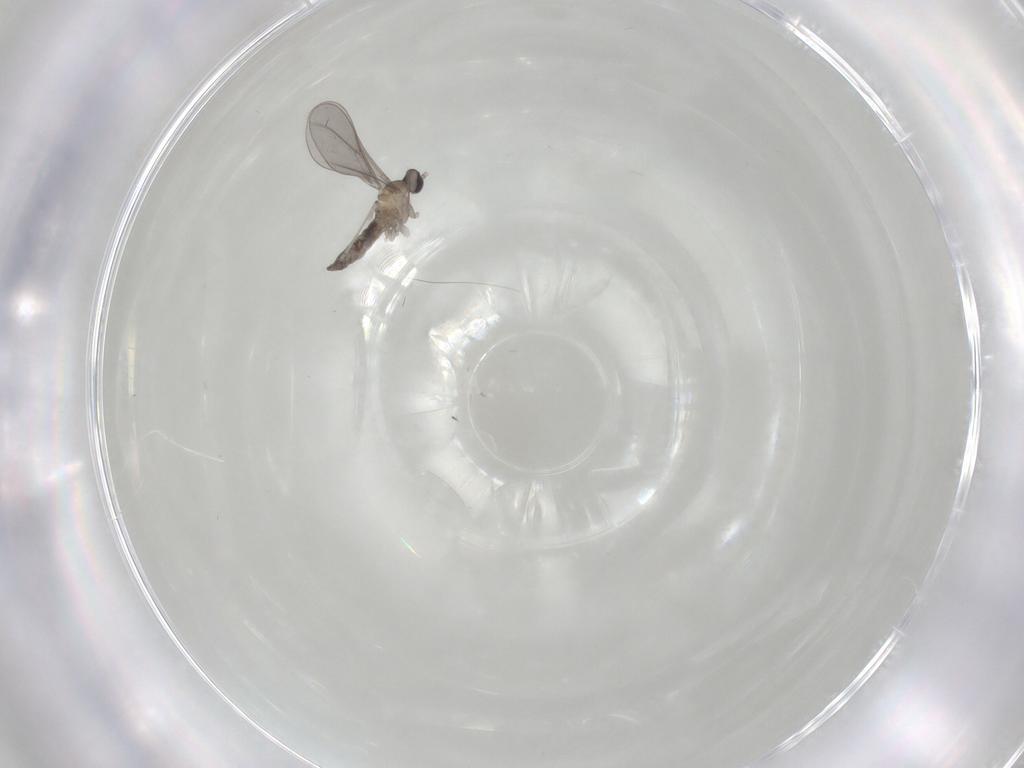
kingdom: Animalia
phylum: Arthropoda
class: Insecta
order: Diptera
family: Cecidomyiidae
